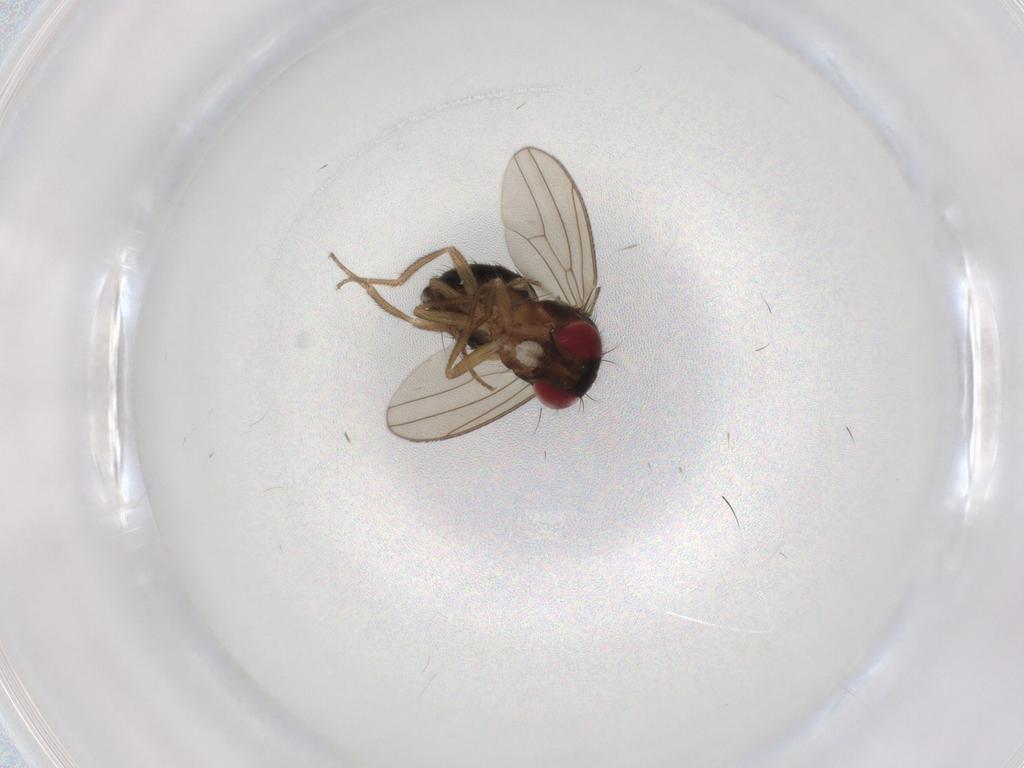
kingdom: Animalia
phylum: Arthropoda
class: Insecta
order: Diptera
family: Drosophilidae
